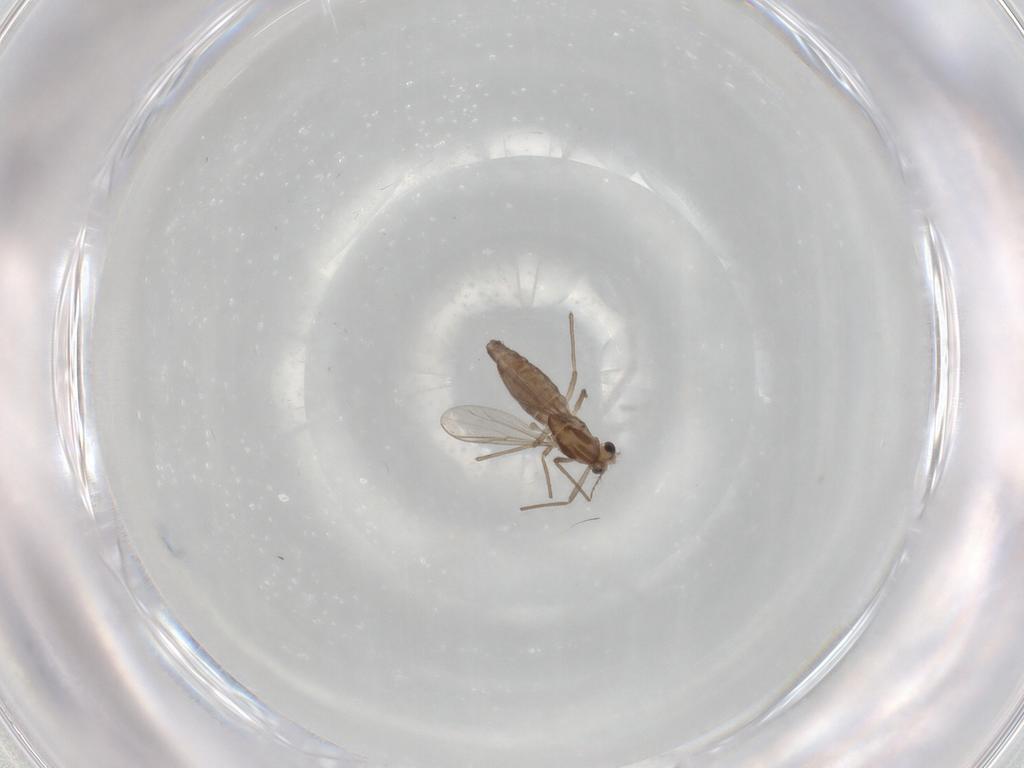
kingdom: Animalia
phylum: Arthropoda
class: Insecta
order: Diptera
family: Chironomidae
